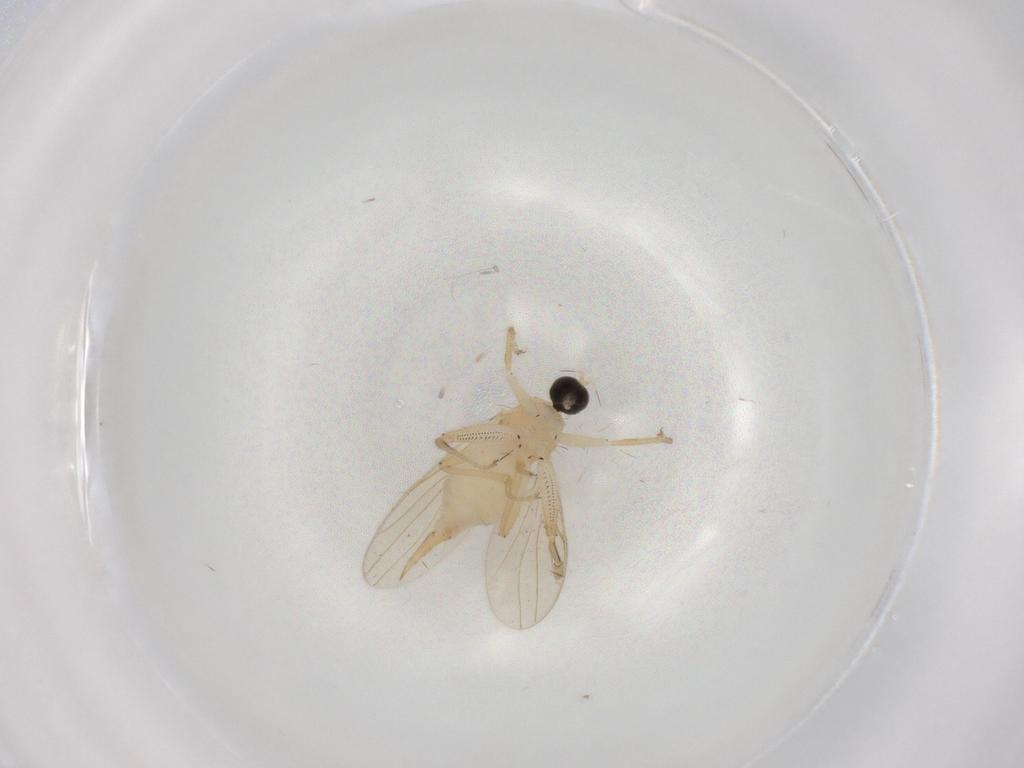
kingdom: Animalia
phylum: Arthropoda
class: Insecta
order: Diptera
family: Hybotidae
